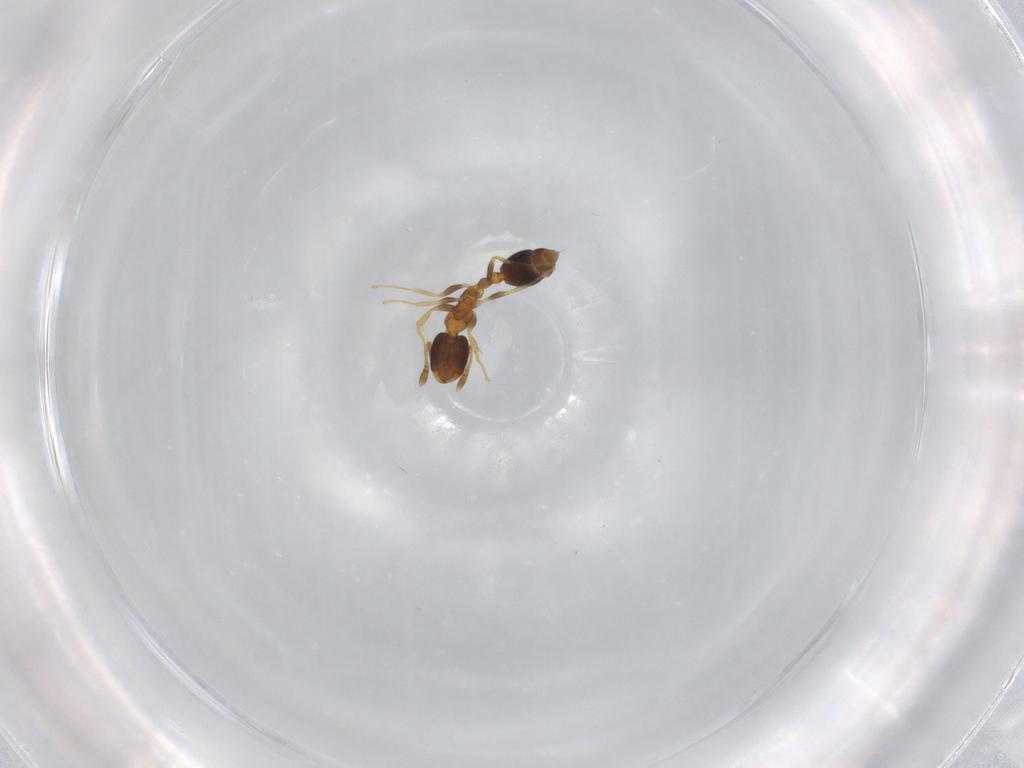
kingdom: Animalia
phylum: Arthropoda
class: Insecta
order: Hymenoptera
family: Formicidae
